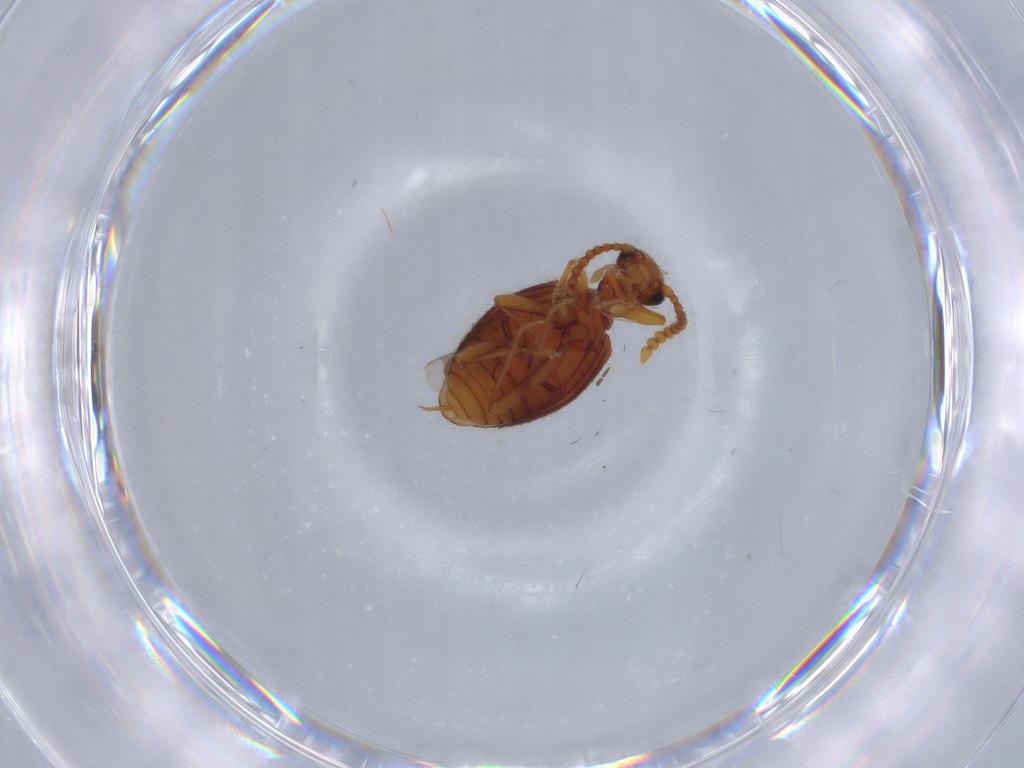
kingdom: Animalia
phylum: Arthropoda
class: Insecta
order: Coleoptera
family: Anthicidae
